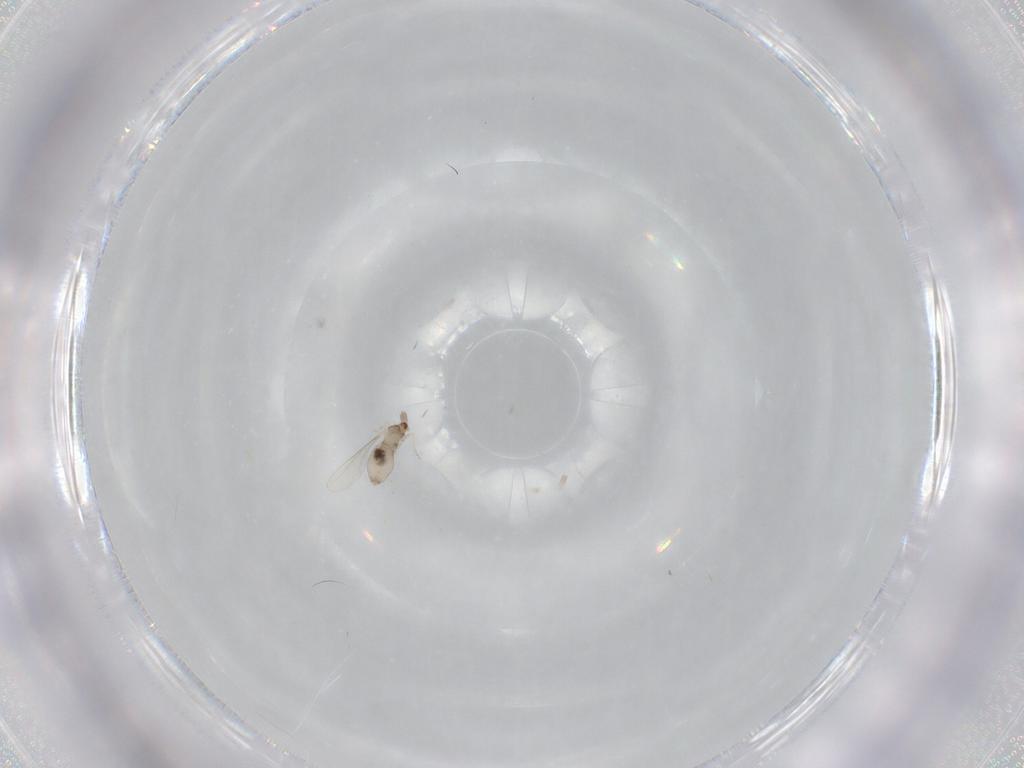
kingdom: Animalia
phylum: Arthropoda
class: Insecta
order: Diptera
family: Cecidomyiidae
